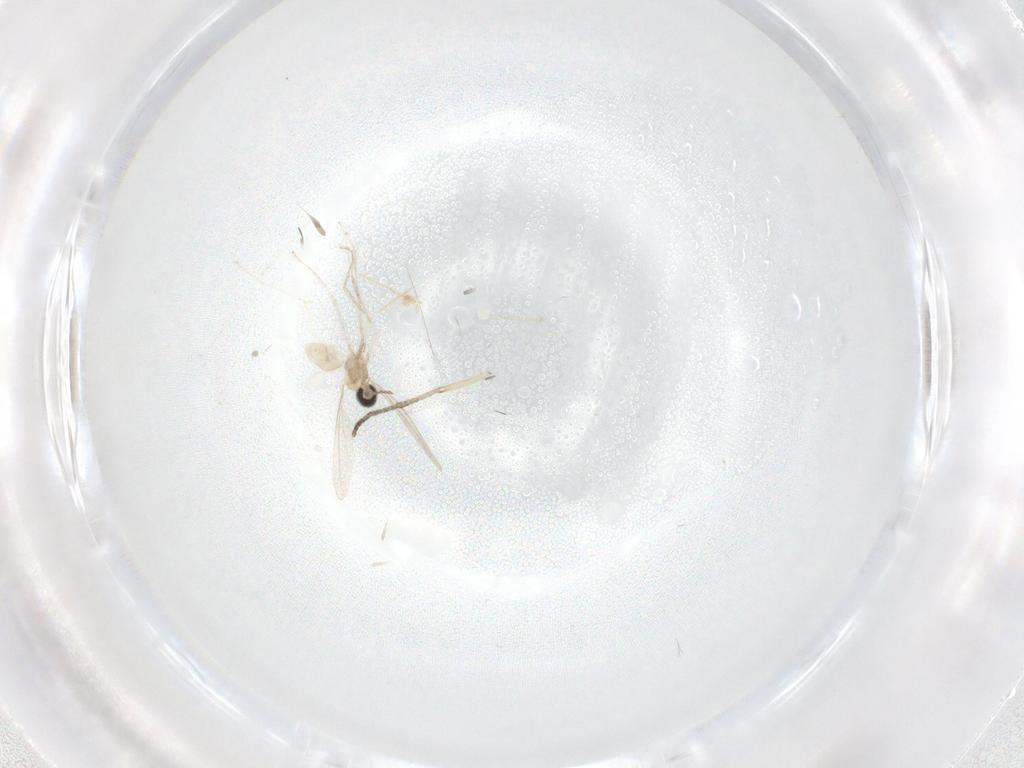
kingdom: Animalia
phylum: Arthropoda
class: Insecta
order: Diptera
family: Cecidomyiidae
